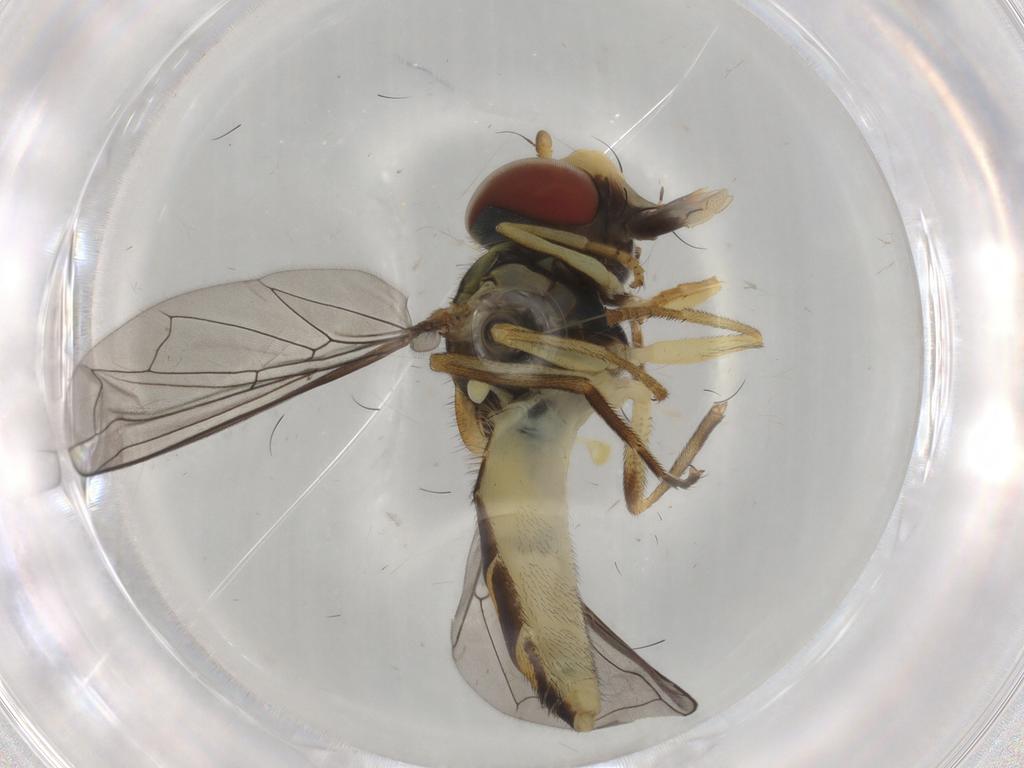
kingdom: Animalia
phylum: Arthropoda
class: Insecta
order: Diptera
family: Syrphidae
